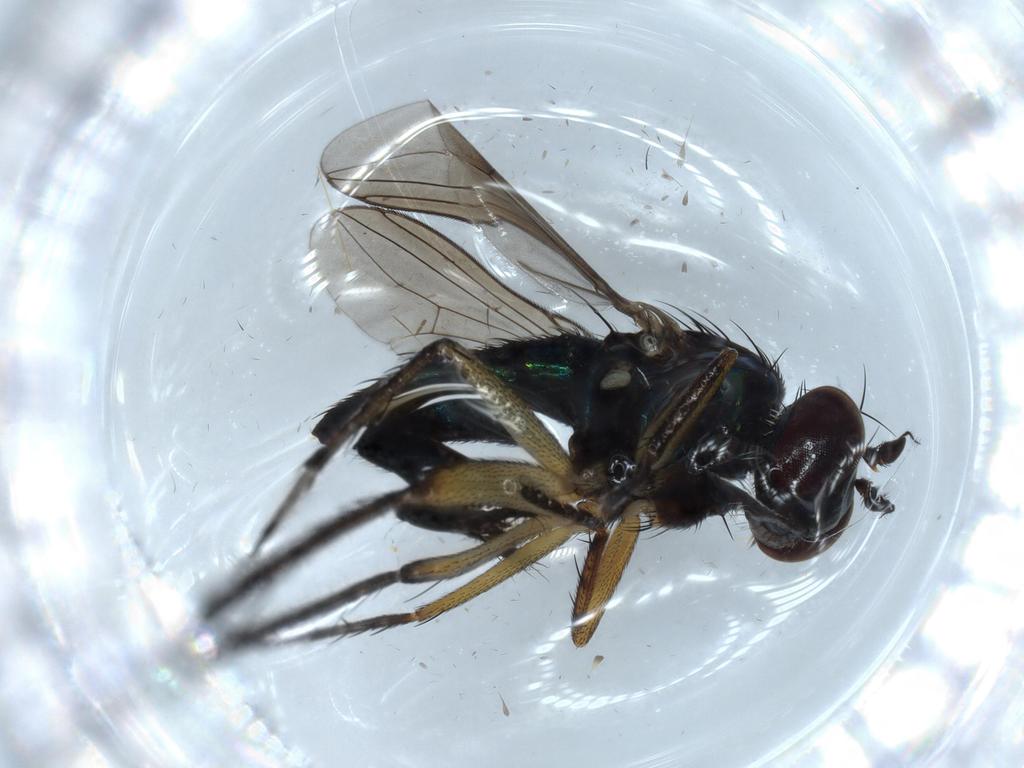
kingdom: Animalia
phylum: Arthropoda
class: Insecta
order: Diptera
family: Dolichopodidae
